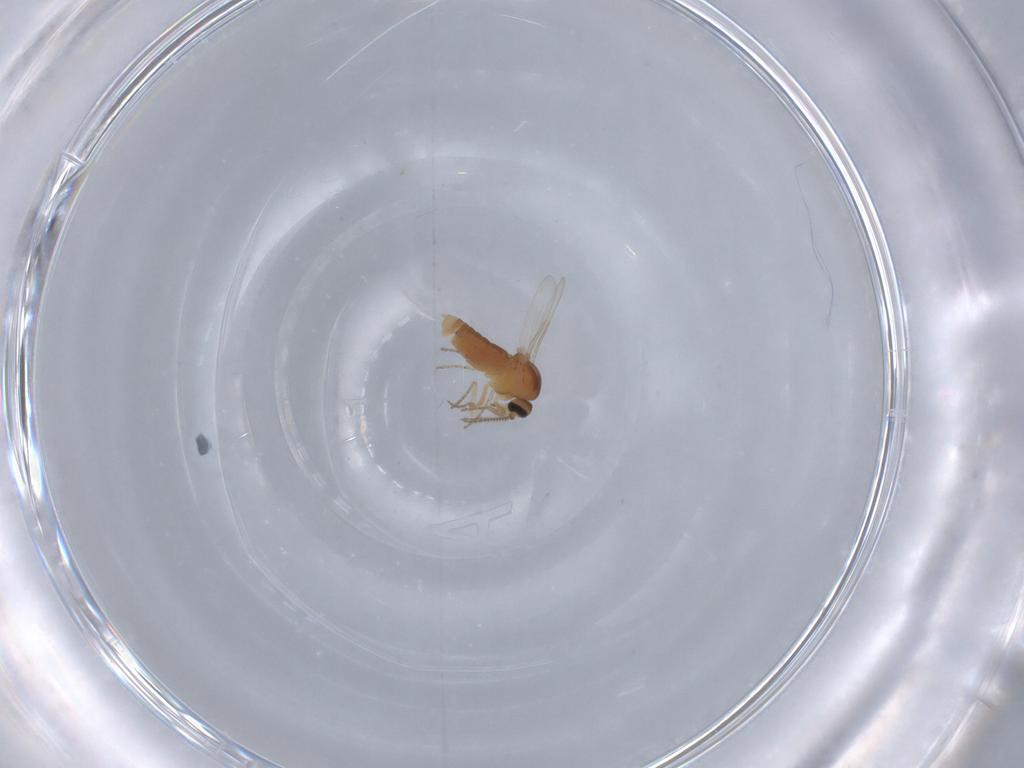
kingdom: Animalia
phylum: Arthropoda
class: Insecta
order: Diptera
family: Ceratopogonidae
